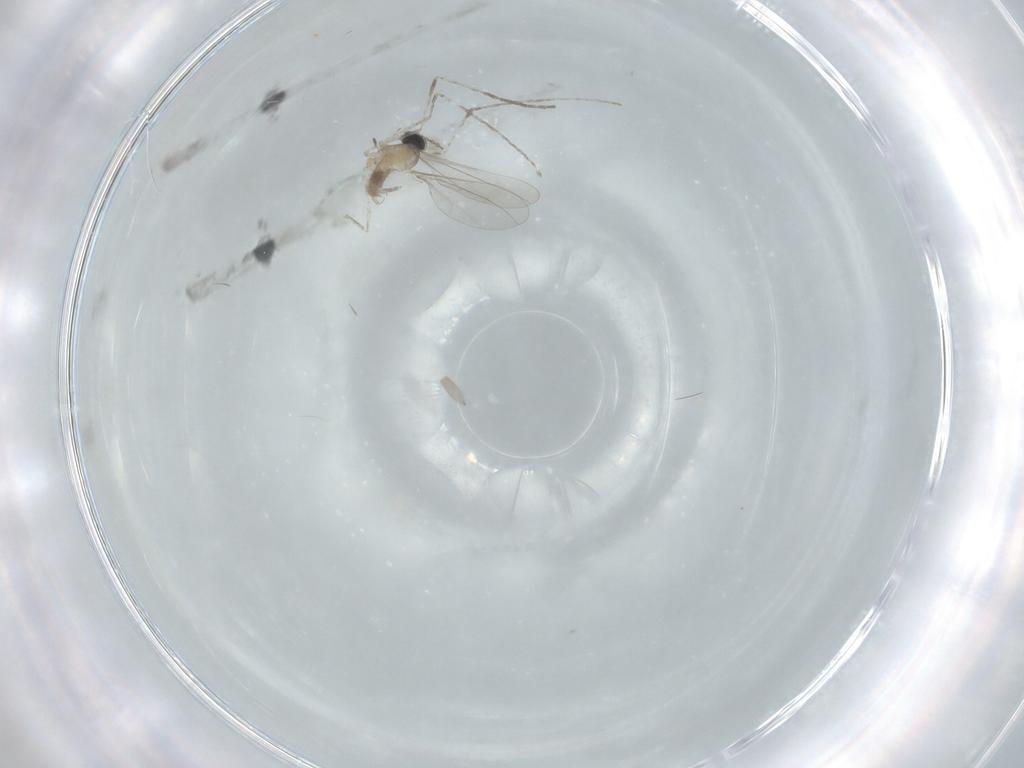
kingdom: Animalia
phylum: Arthropoda
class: Insecta
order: Diptera
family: Cecidomyiidae
